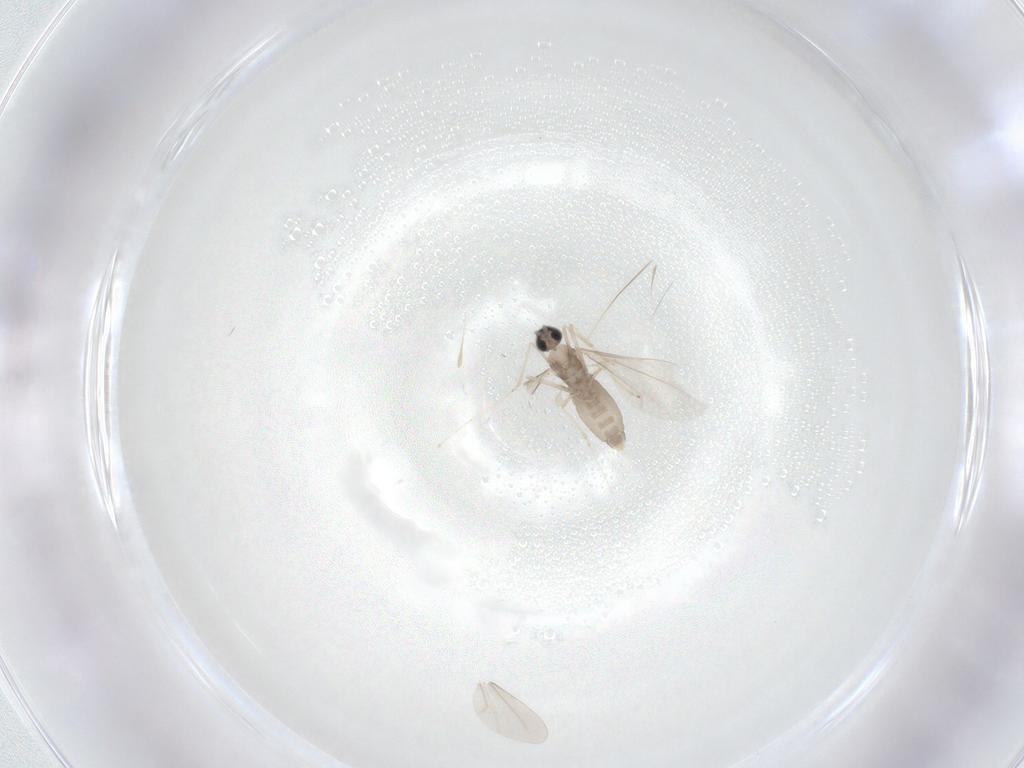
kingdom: Animalia
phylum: Arthropoda
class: Insecta
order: Diptera
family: Cecidomyiidae
